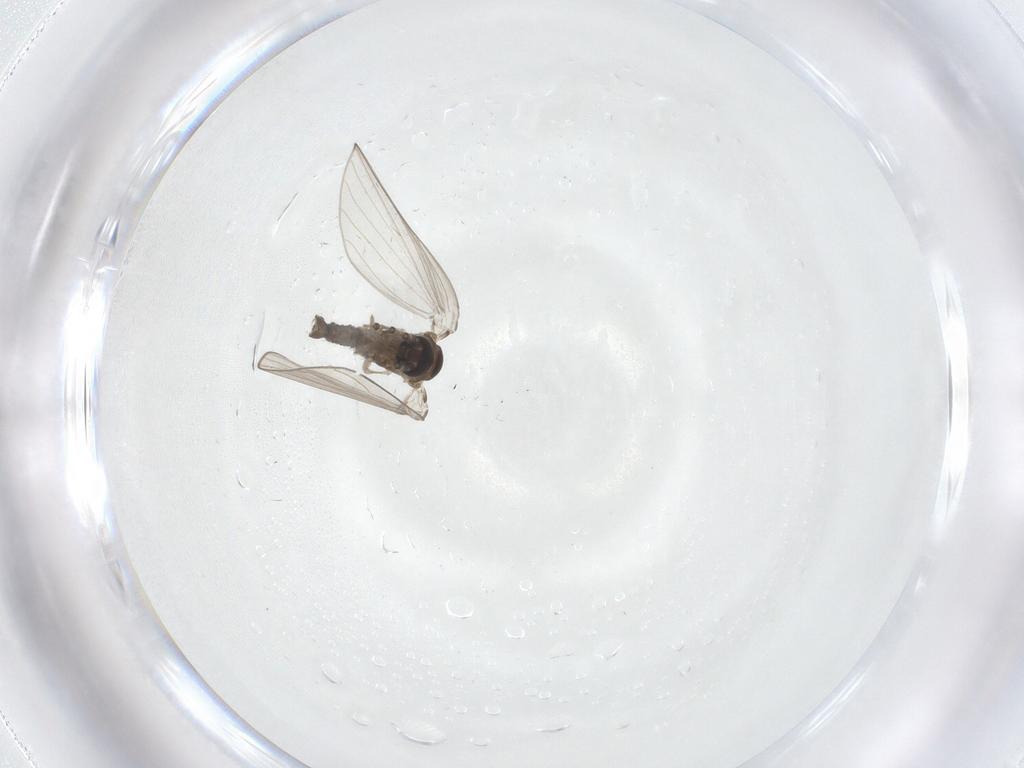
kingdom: Animalia
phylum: Arthropoda
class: Insecta
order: Diptera
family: Psychodidae
